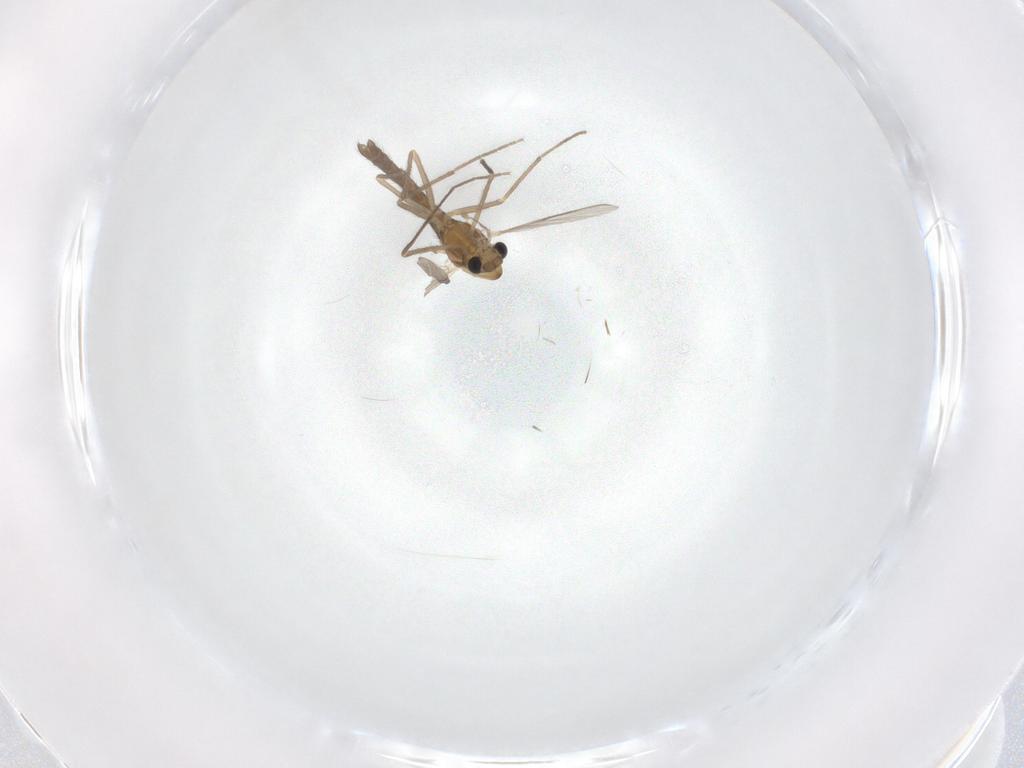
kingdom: Animalia
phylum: Arthropoda
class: Insecta
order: Diptera
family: Chironomidae
